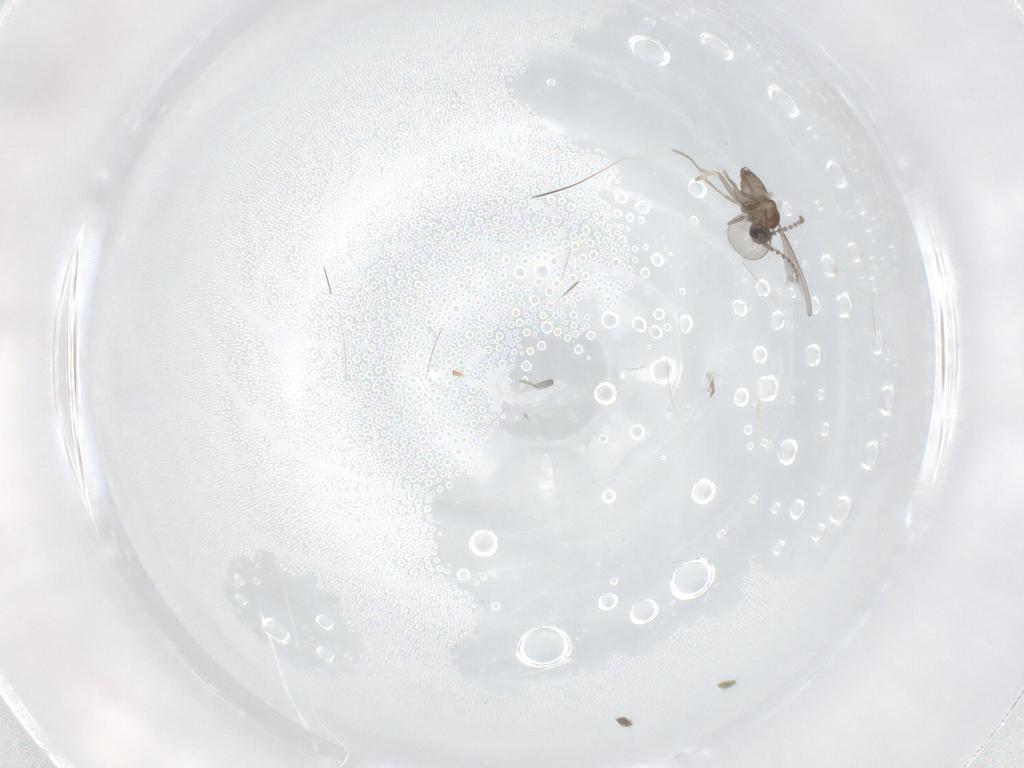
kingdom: Animalia
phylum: Arthropoda
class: Insecta
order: Diptera
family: Cecidomyiidae
